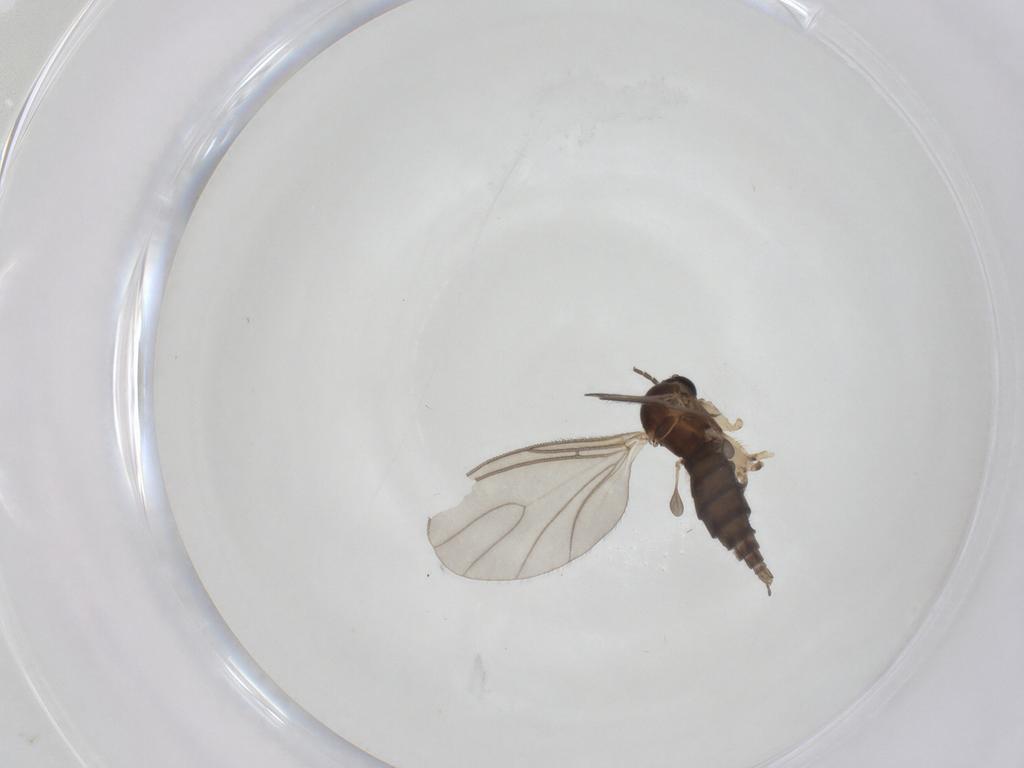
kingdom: Animalia
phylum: Arthropoda
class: Insecta
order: Diptera
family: Sciaridae
